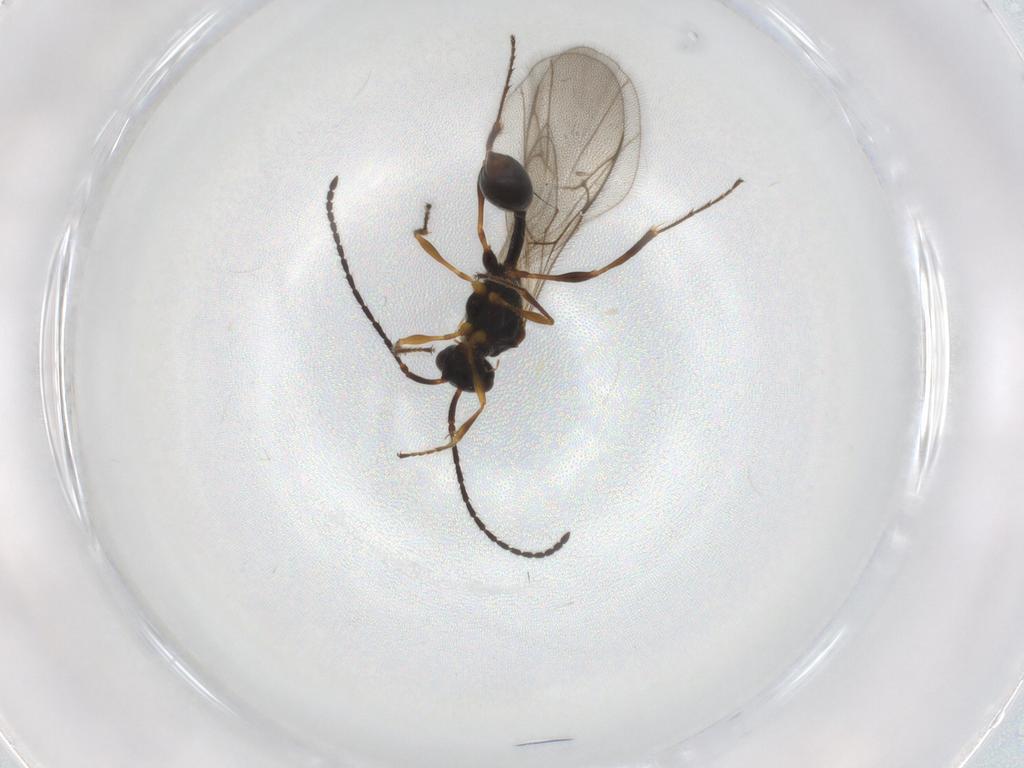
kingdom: Animalia
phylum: Arthropoda
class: Insecta
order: Hymenoptera
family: Diapriidae
